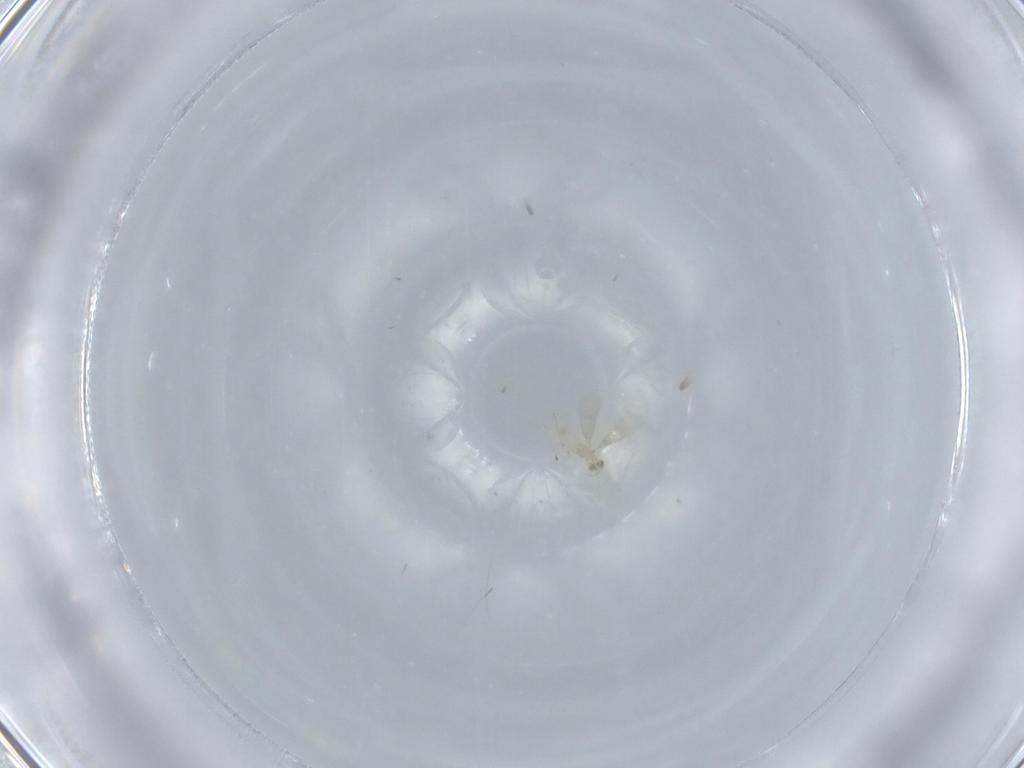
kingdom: Animalia
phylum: Arthropoda
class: Insecta
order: Hymenoptera
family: Aphelinidae
